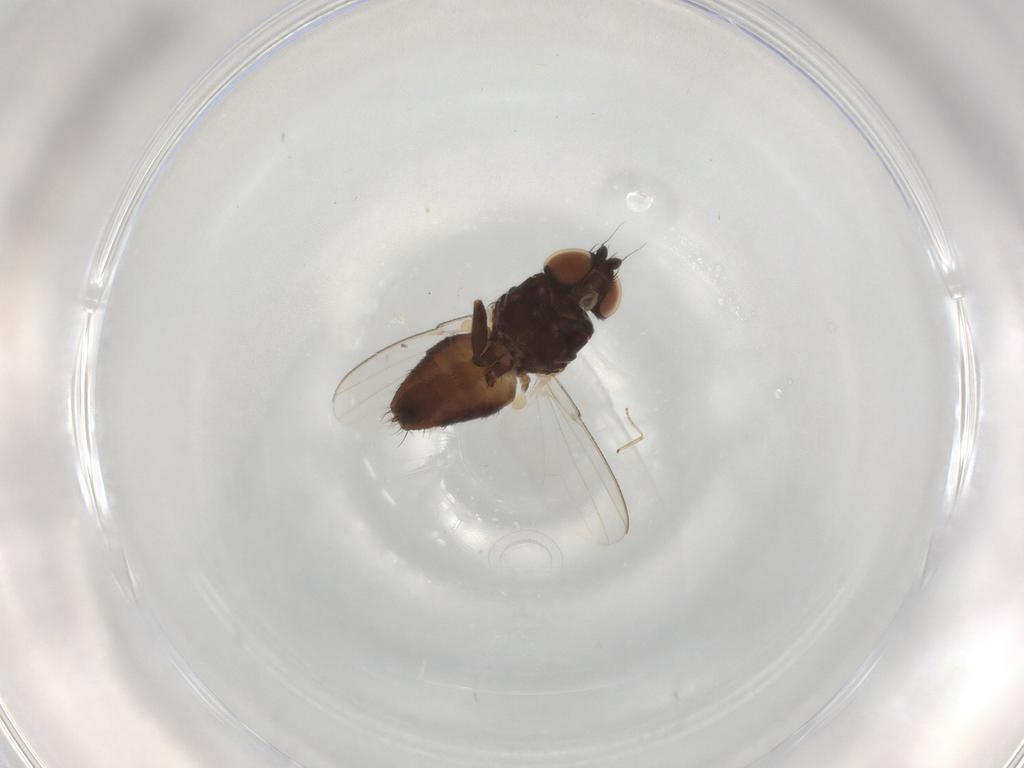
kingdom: Animalia
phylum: Arthropoda
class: Insecta
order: Diptera
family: Milichiidae
